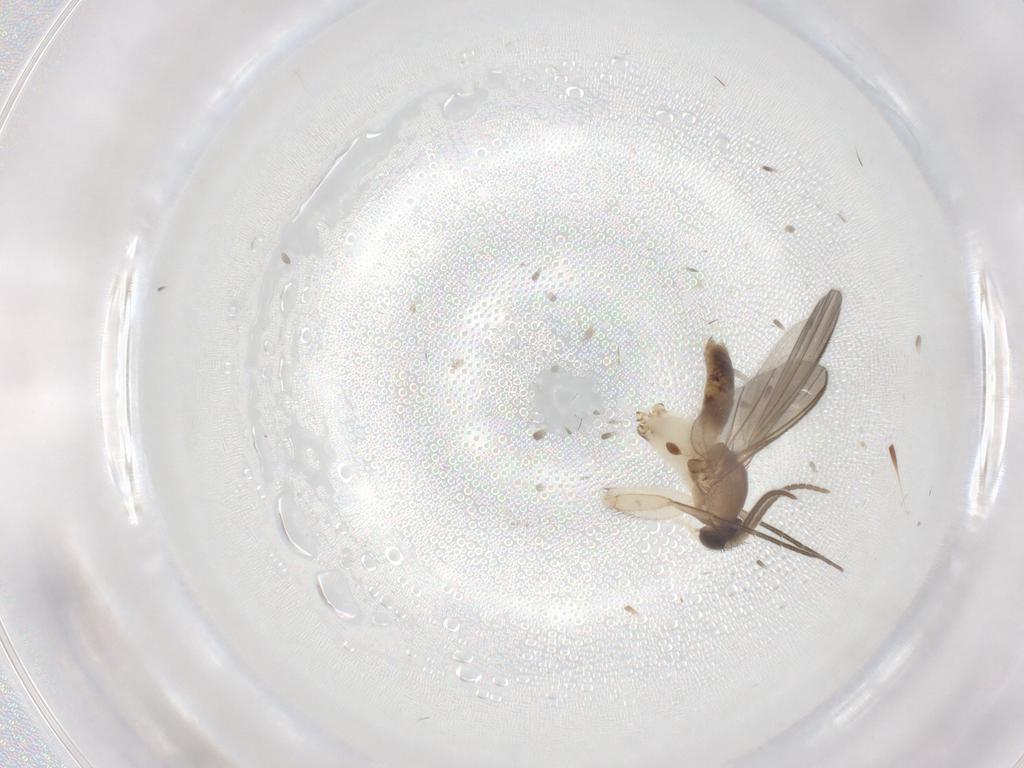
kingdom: Animalia
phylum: Arthropoda
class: Insecta
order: Diptera
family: Mycetophilidae
